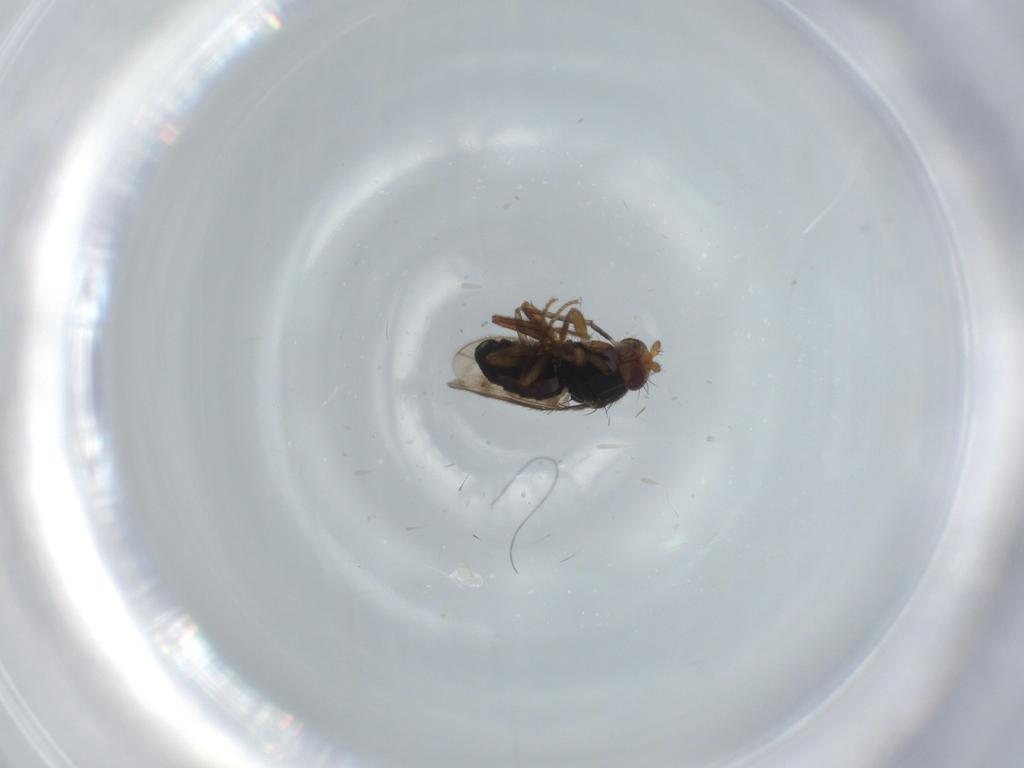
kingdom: Animalia
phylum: Arthropoda
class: Insecta
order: Diptera
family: Sphaeroceridae
